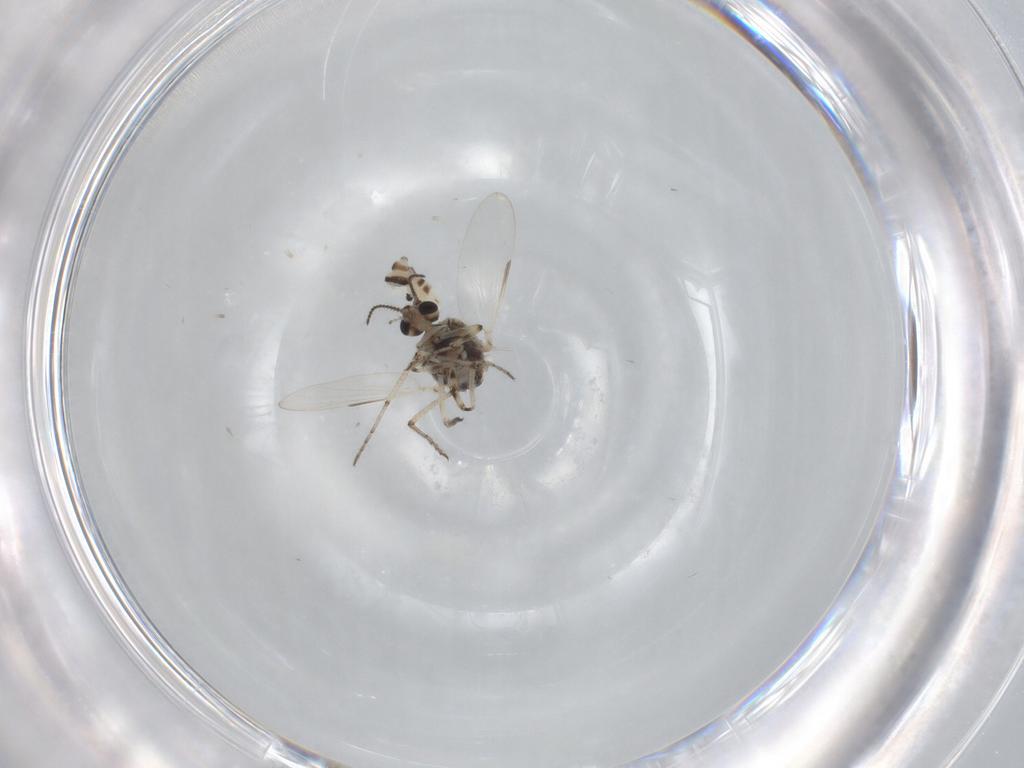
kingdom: Animalia
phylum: Arthropoda
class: Insecta
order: Diptera
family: Ceratopogonidae
